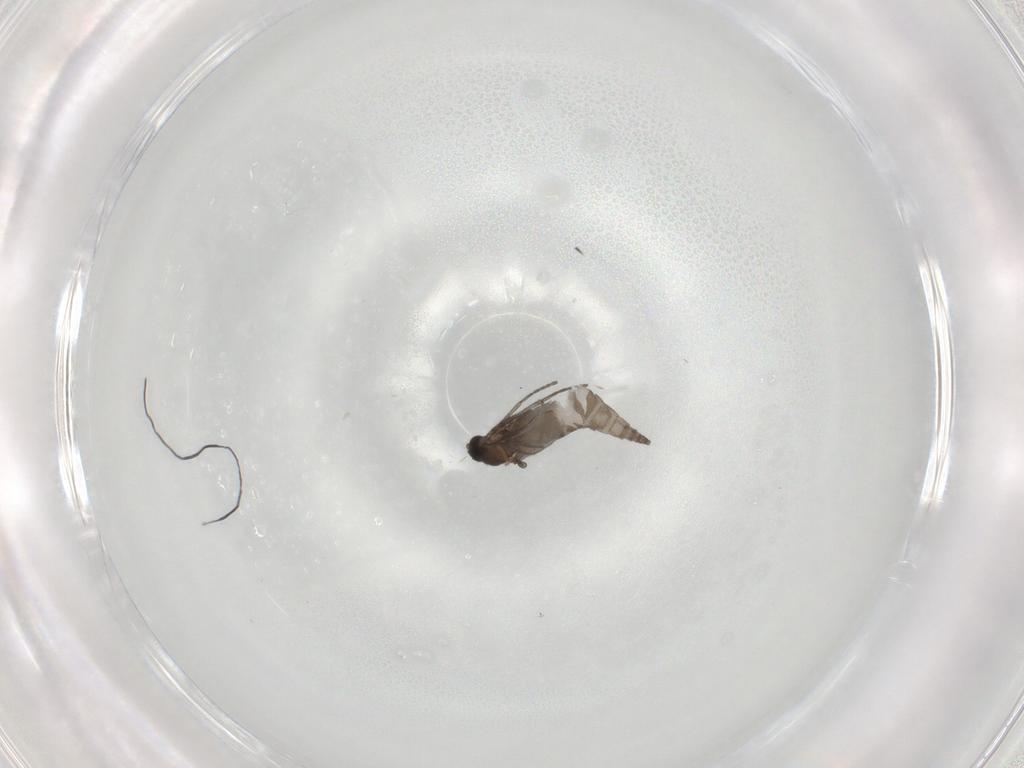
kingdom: Animalia
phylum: Arthropoda
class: Insecta
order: Diptera
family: Sciaridae
